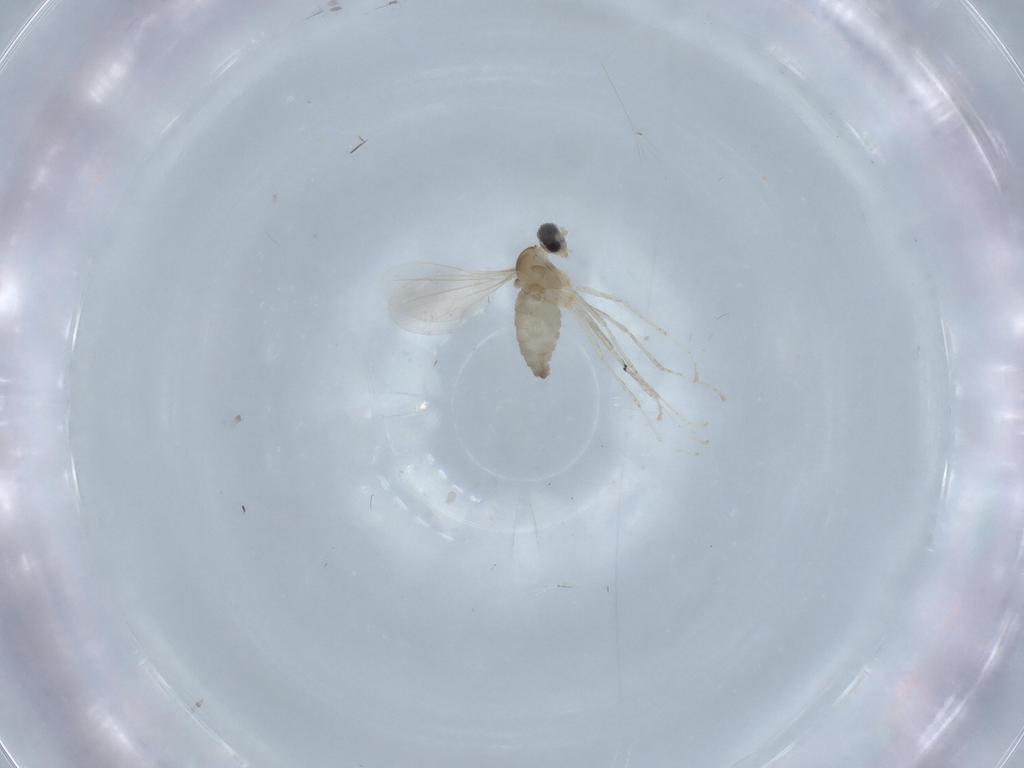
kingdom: Animalia
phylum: Arthropoda
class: Insecta
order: Diptera
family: Sciaridae
